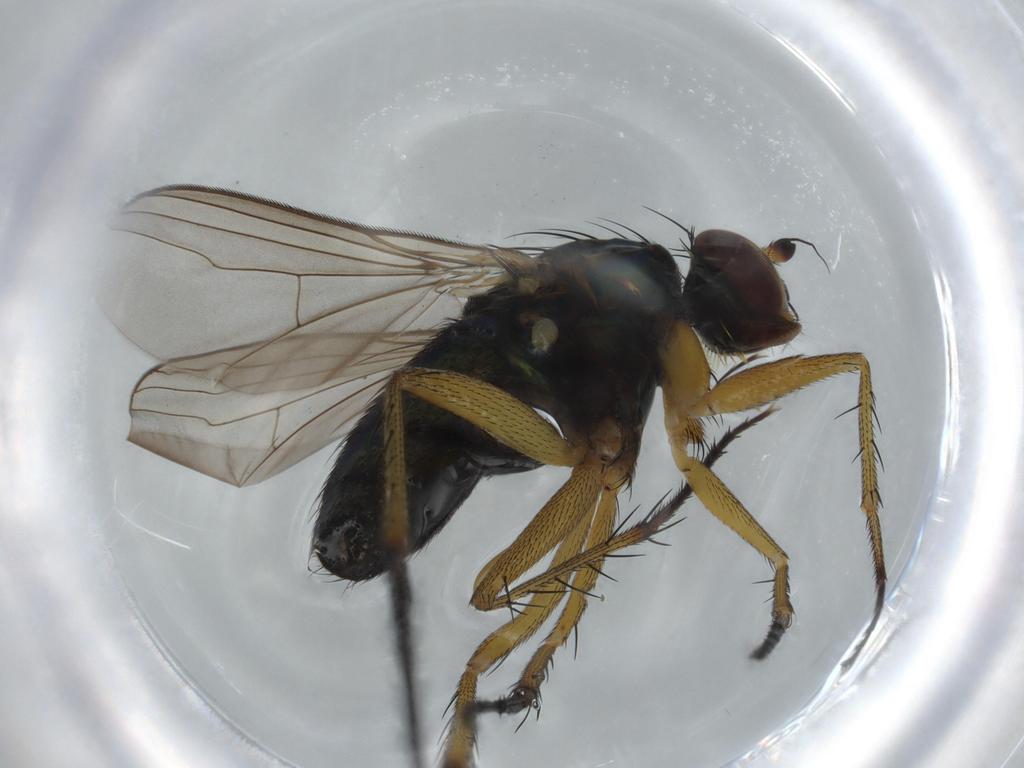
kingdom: Animalia
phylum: Arthropoda
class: Insecta
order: Diptera
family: Dolichopodidae
